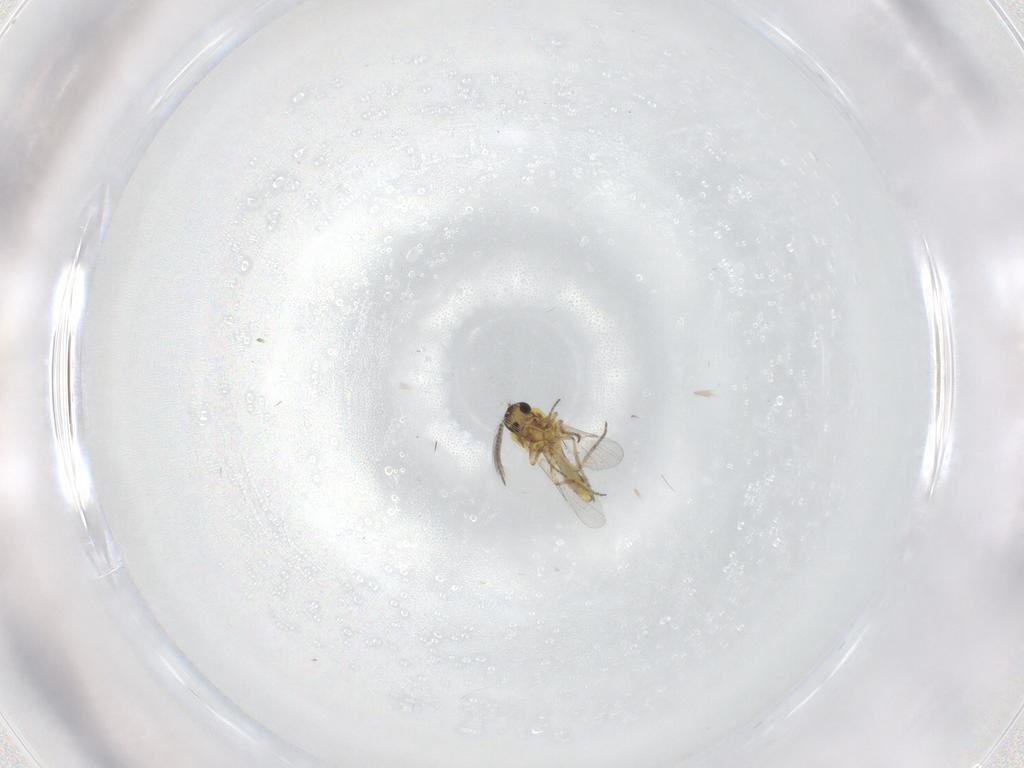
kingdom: Animalia
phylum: Arthropoda
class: Insecta
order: Diptera
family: Ceratopogonidae
